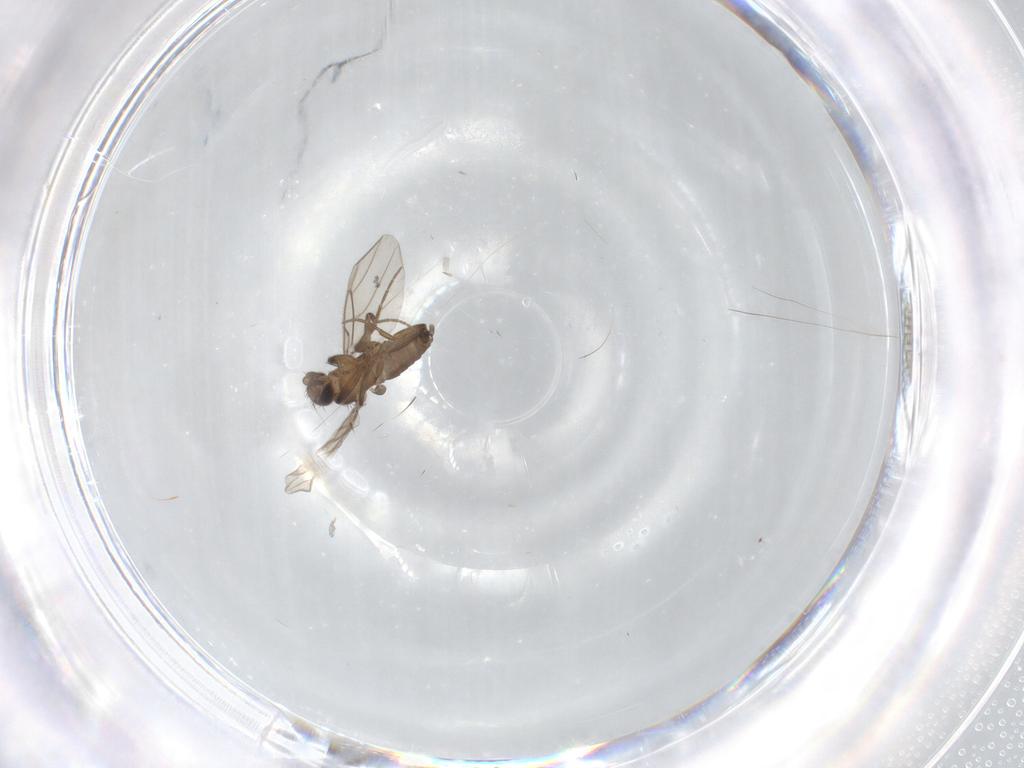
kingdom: Animalia
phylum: Arthropoda
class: Insecta
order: Diptera
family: Phoridae
